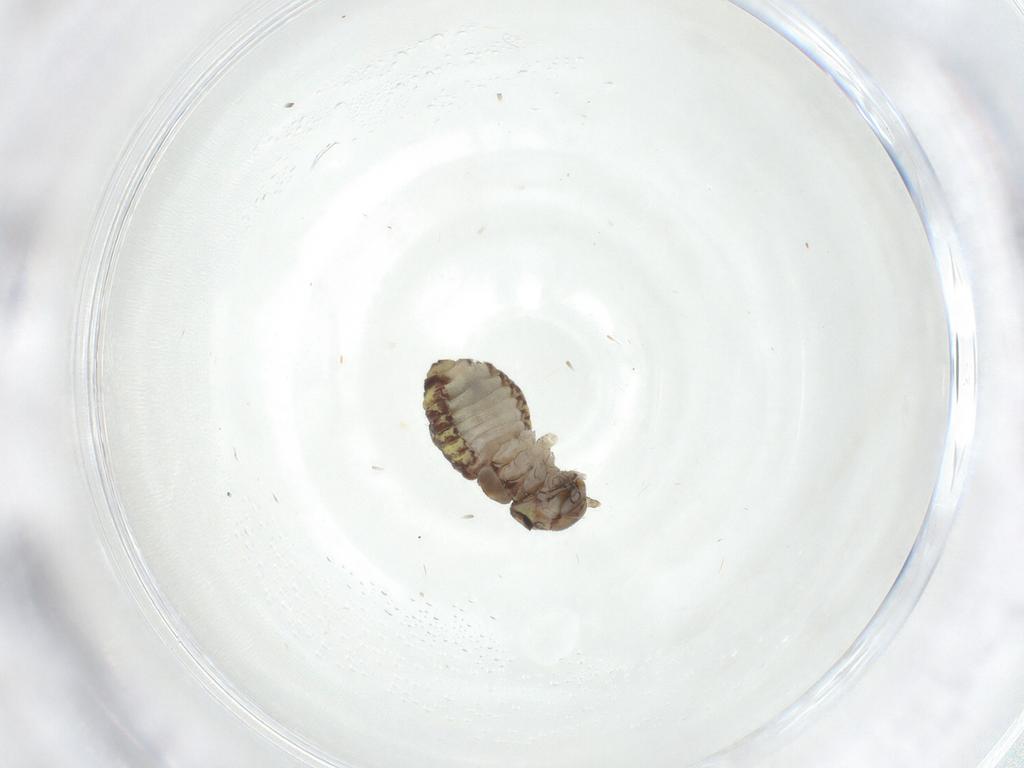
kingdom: Animalia
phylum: Arthropoda
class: Insecta
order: Psocodea
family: Psocidae
